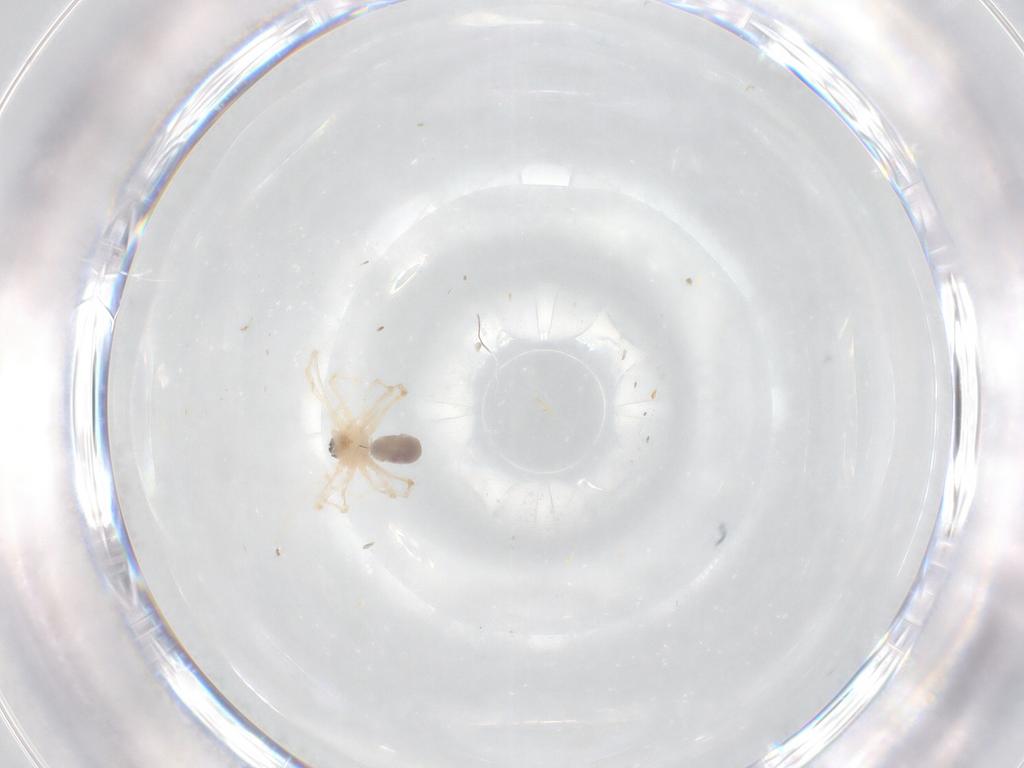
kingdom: Animalia
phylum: Arthropoda
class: Arachnida
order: Araneae
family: Pholcidae
